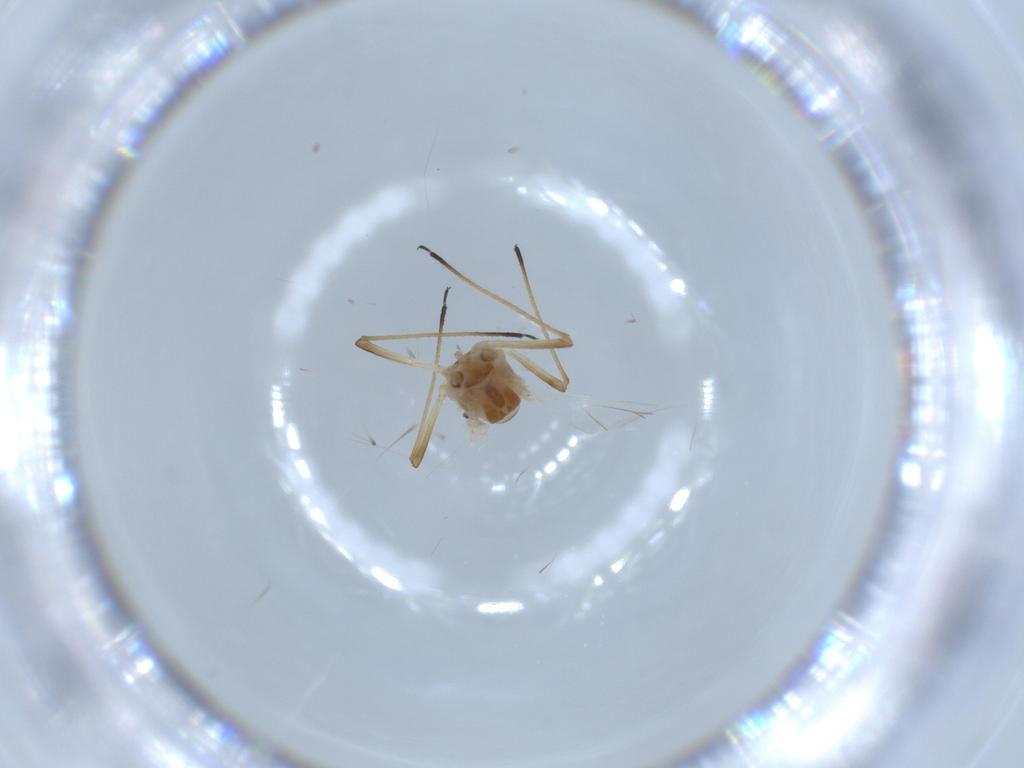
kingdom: Animalia
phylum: Arthropoda
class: Insecta
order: Hemiptera
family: Aphididae
